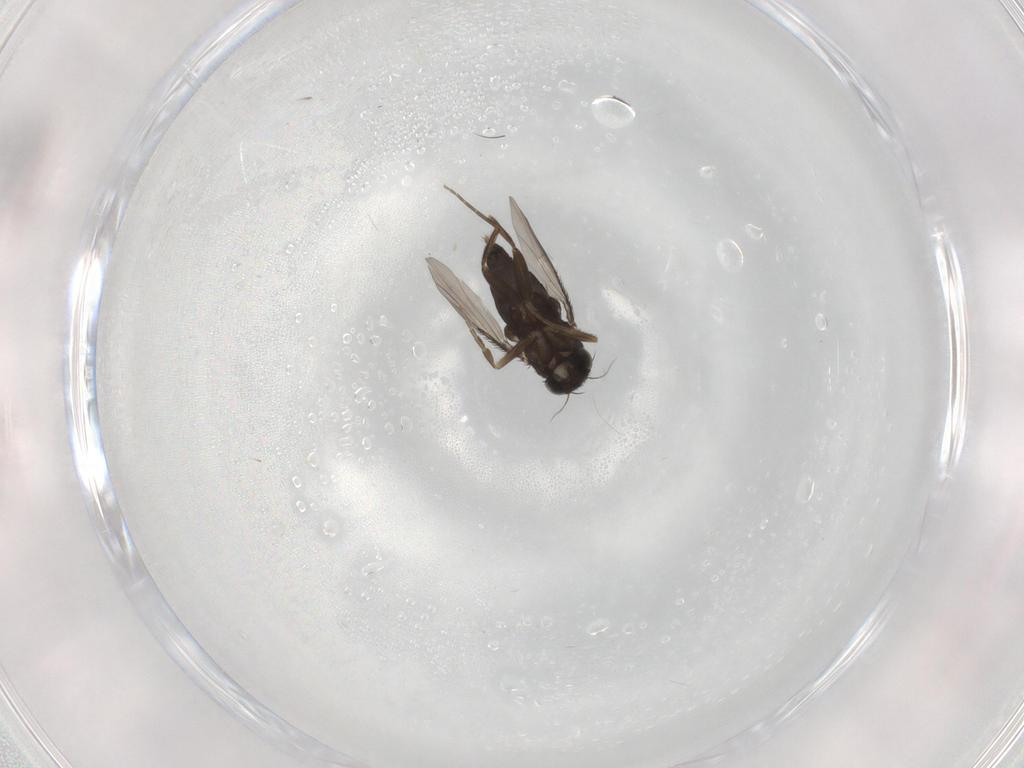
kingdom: Animalia
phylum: Arthropoda
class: Insecta
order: Diptera
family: Phoridae
